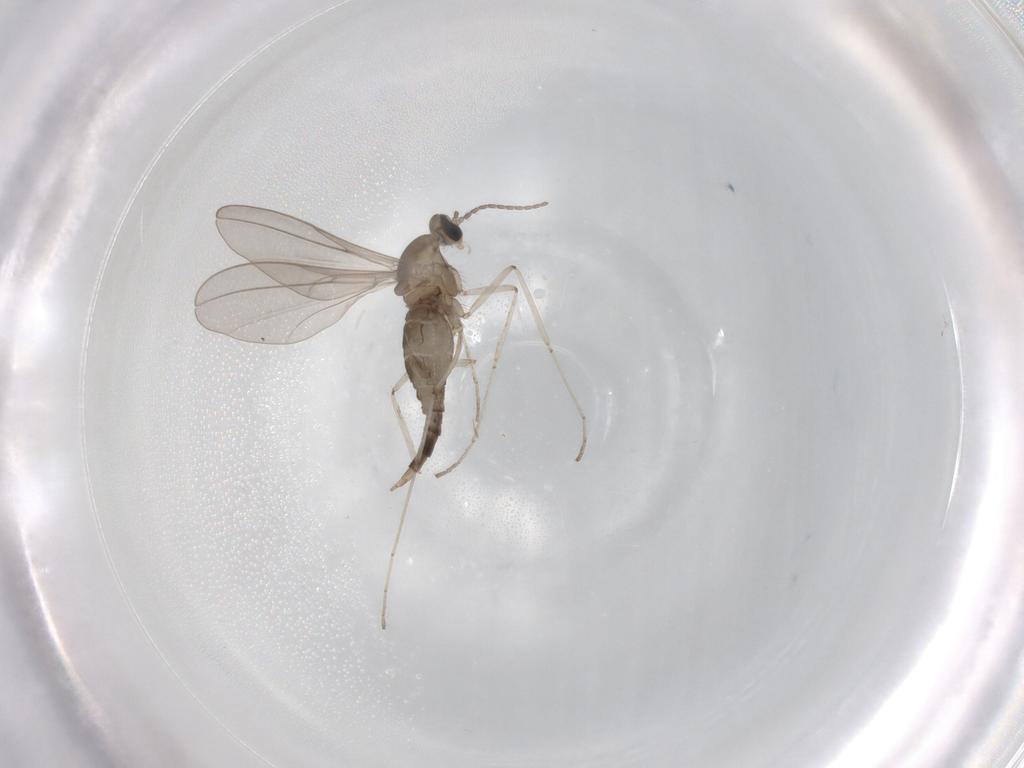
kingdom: Animalia
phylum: Arthropoda
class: Insecta
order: Diptera
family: Cecidomyiidae
